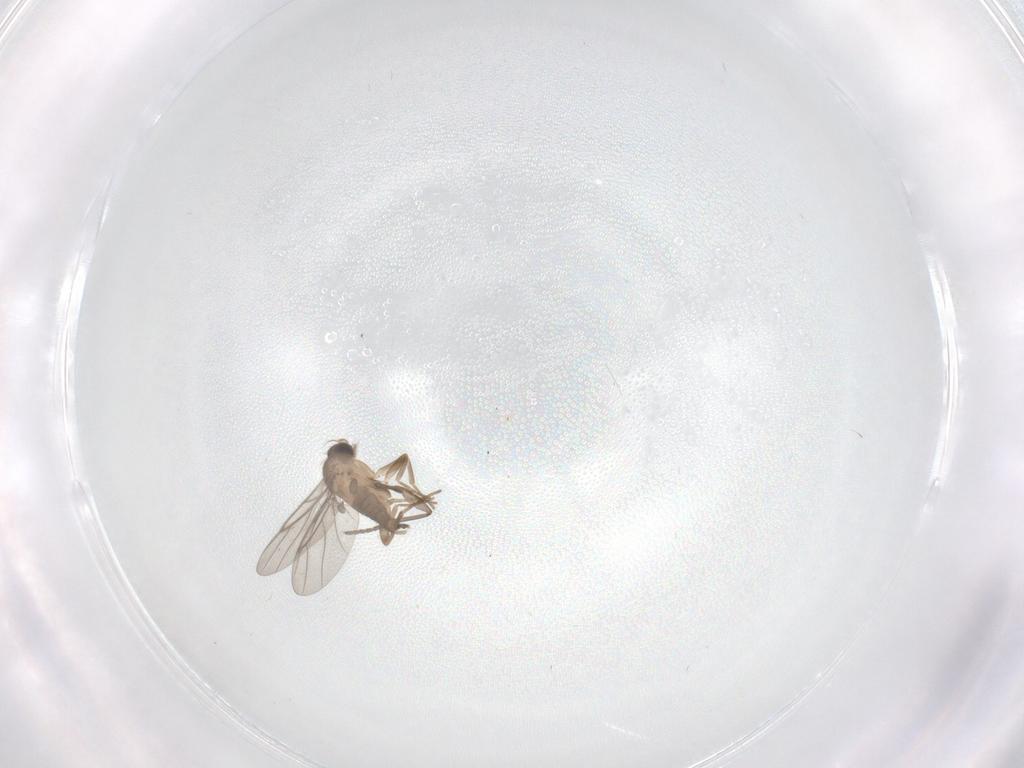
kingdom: Animalia
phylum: Arthropoda
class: Insecta
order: Diptera
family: Sciaridae
